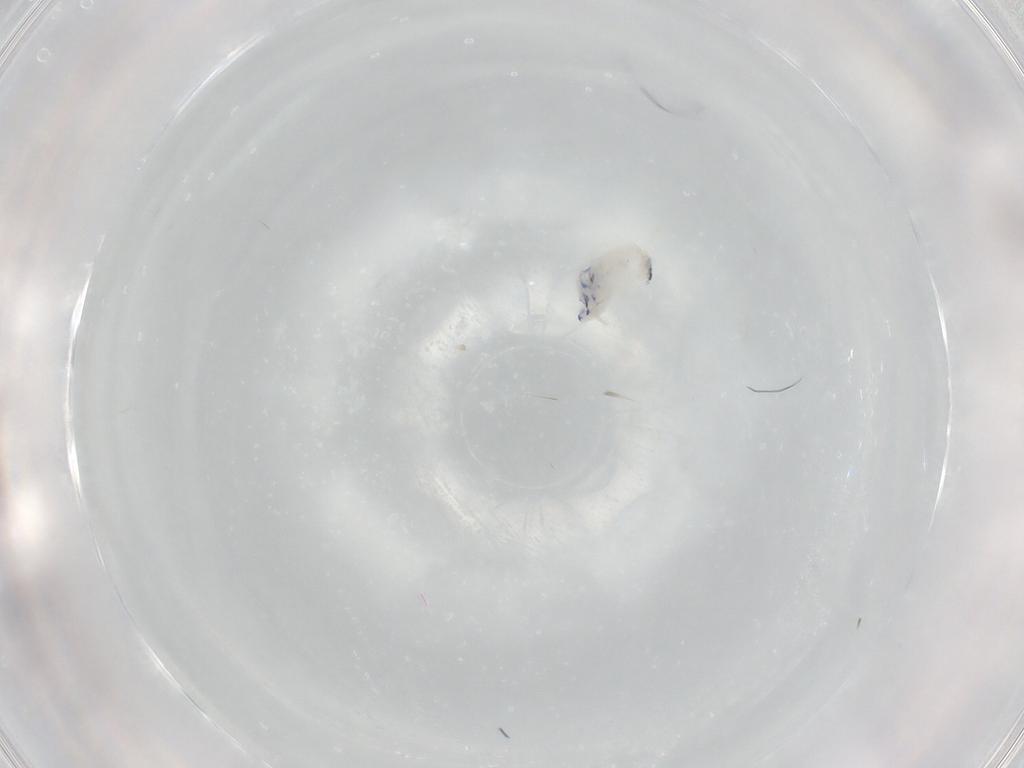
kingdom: Animalia
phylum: Arthropoda
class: Collembola
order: Entomobryomorpha
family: Entomobryidae
